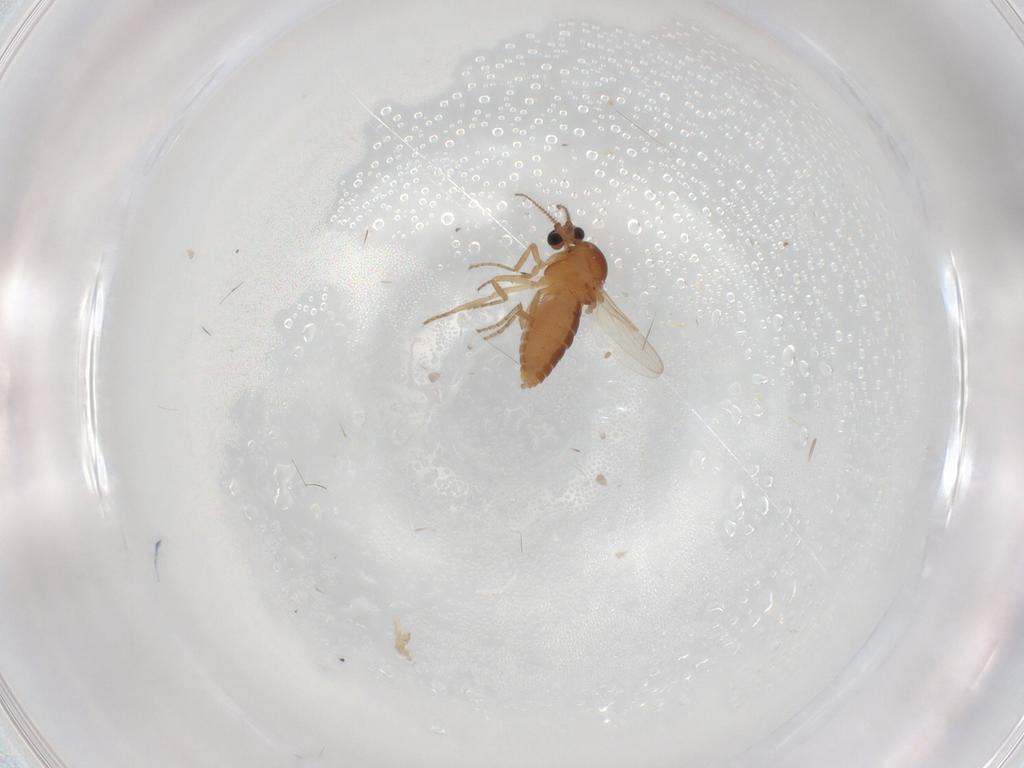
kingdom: Animalia
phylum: Arthropoda
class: Insecta
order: Diptera
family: Ceratopogonidae
